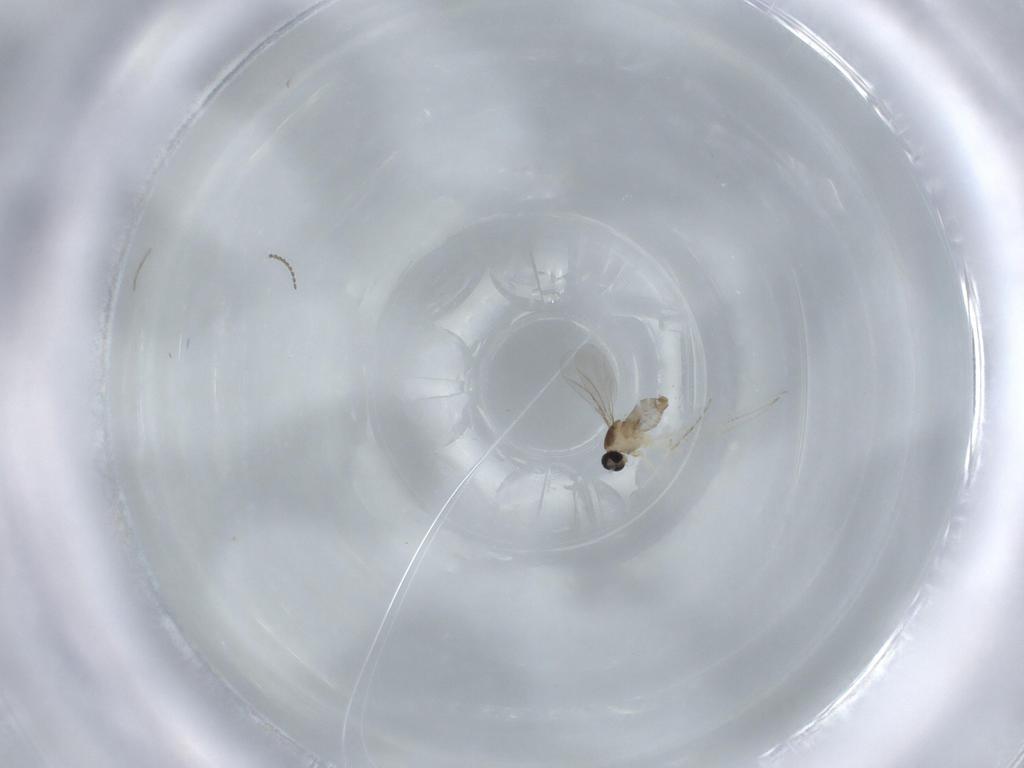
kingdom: Animalia
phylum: Arthropoda
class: Insecta
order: Diptera
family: Cecidomyiidae
